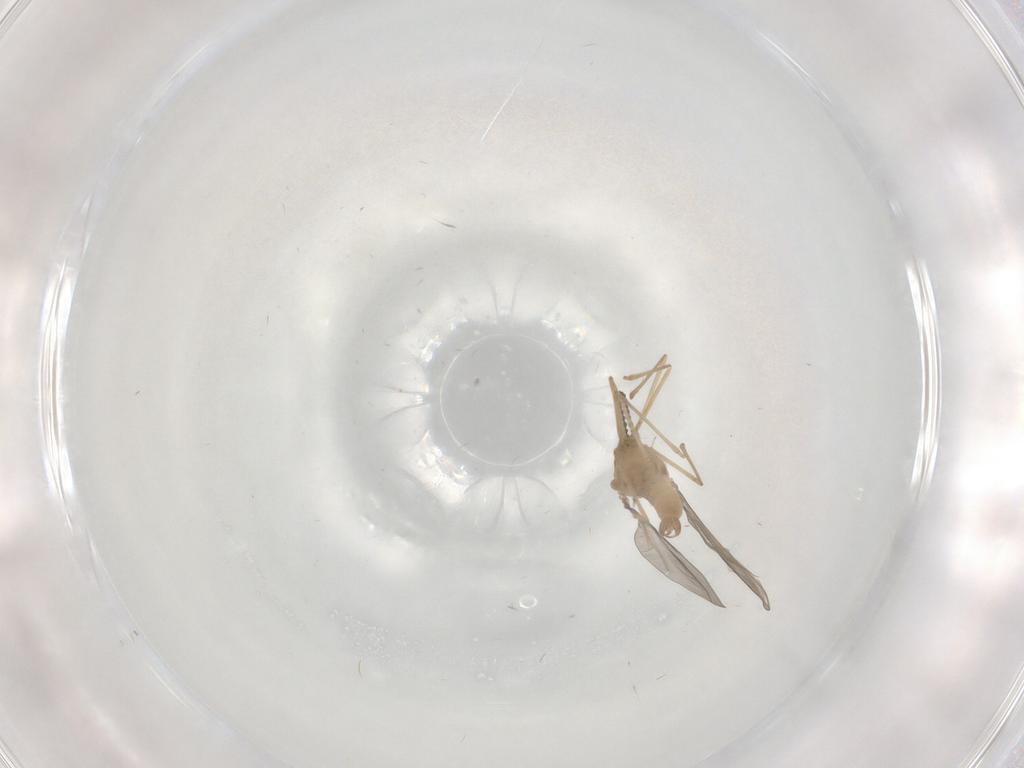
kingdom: Animalia
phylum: Arthropoda
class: Insecta
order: Diptera
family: Cecidomyiidae
